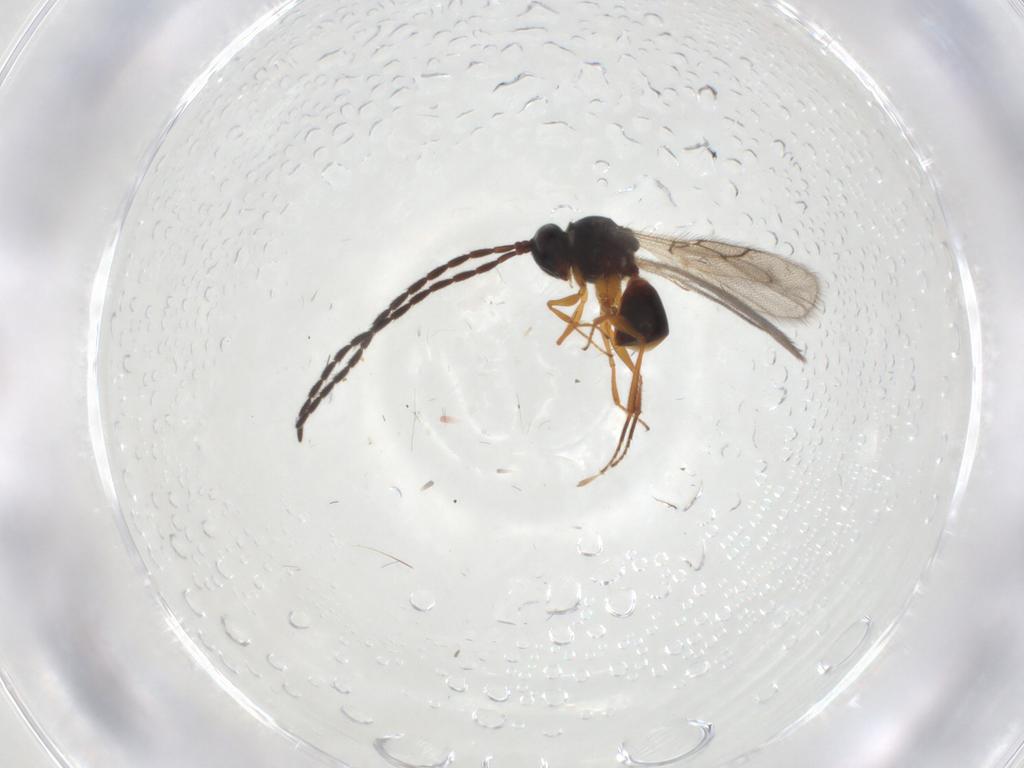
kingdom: Animalia
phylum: Arthropoda
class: Insecta
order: Hymenoptera
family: Figitidae
